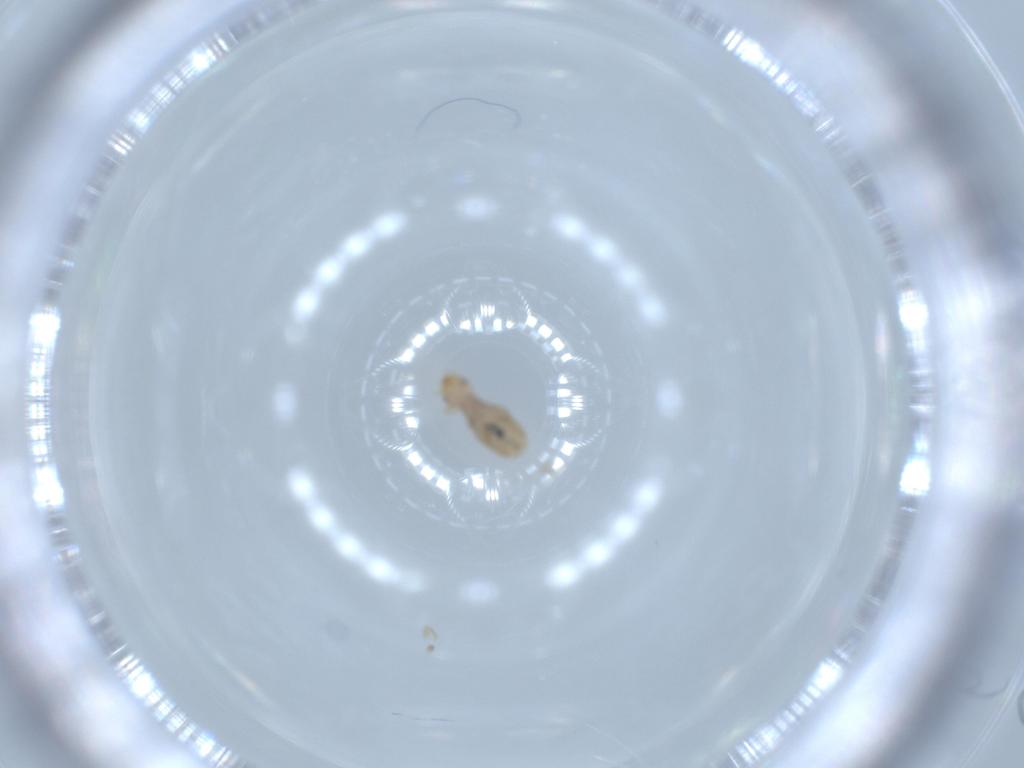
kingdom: Animalia
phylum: Arthropoda
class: Insecta
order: Psocodea
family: Liposcelididae
